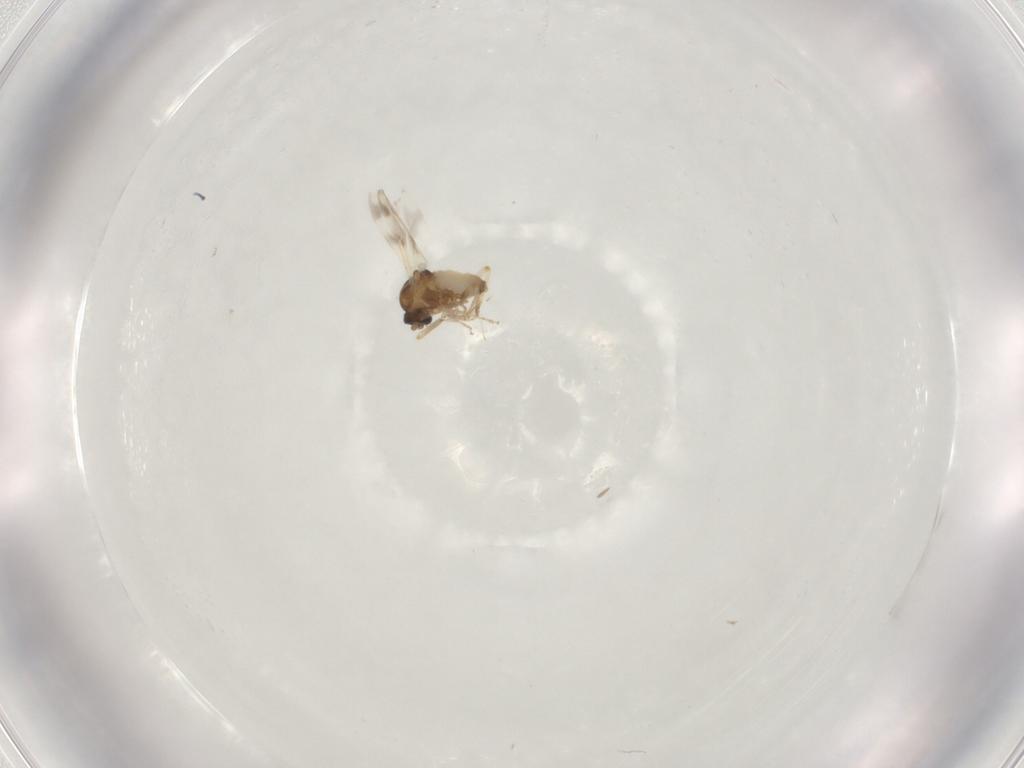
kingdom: Animalia
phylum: Arthropoda
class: Insecta
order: Diptera
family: Ceratopogonidae
